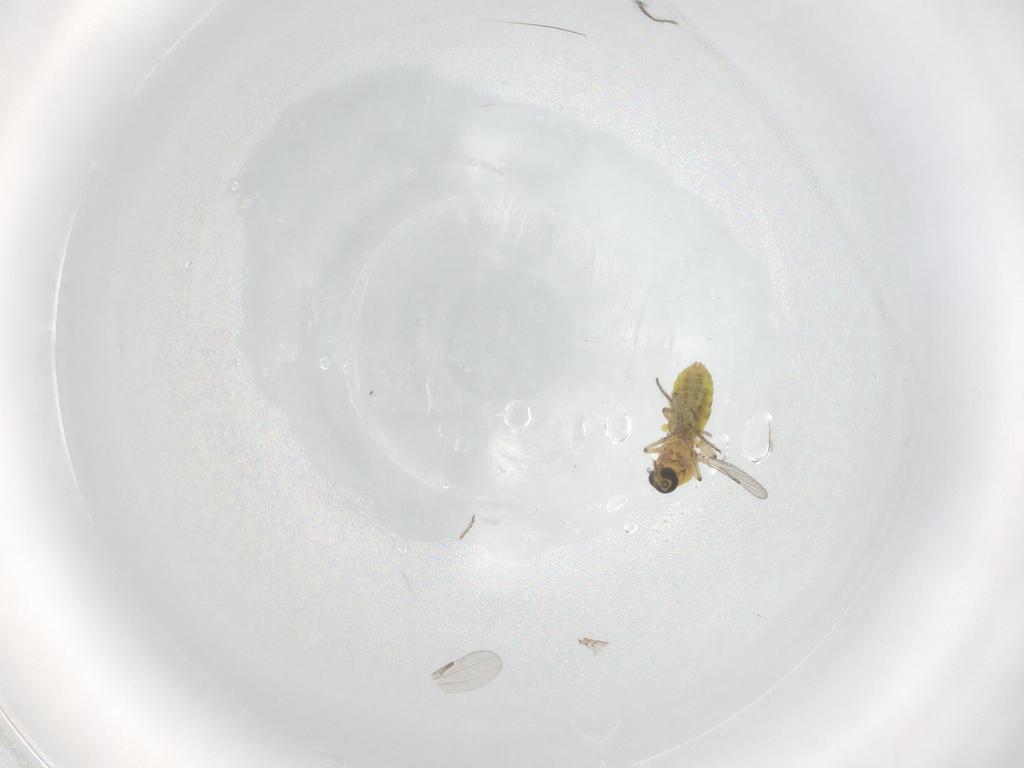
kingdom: Animalia
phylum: Arthropoda
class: Insecta
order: Diptera
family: Ceratopogonidae
